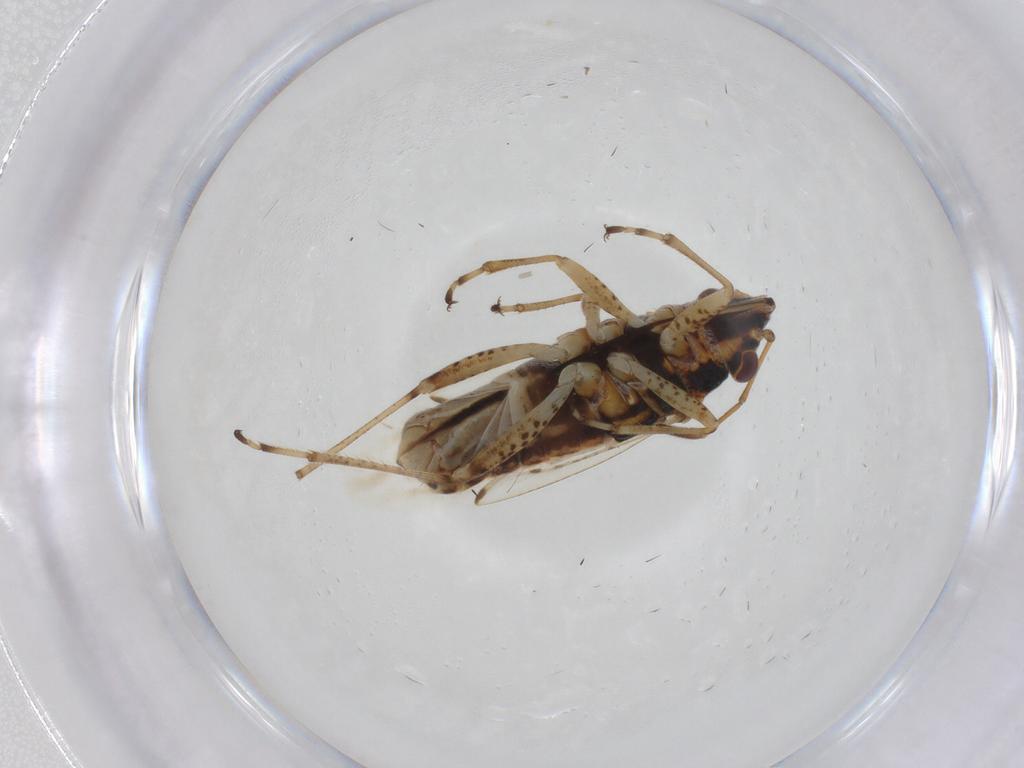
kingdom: Animalia
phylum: Arthropoda
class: Insecta
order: Hemiptera
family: Lygaeidae
